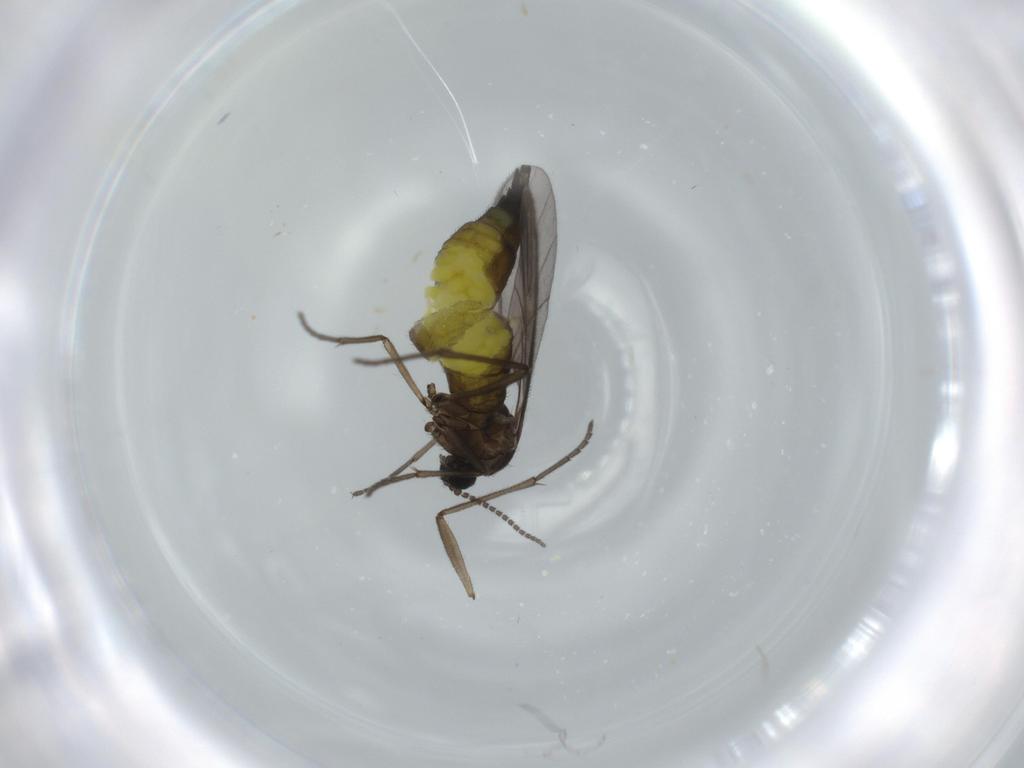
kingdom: Animalia
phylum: Arthropoda
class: Insecta
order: Diptera
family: Sciaridae
